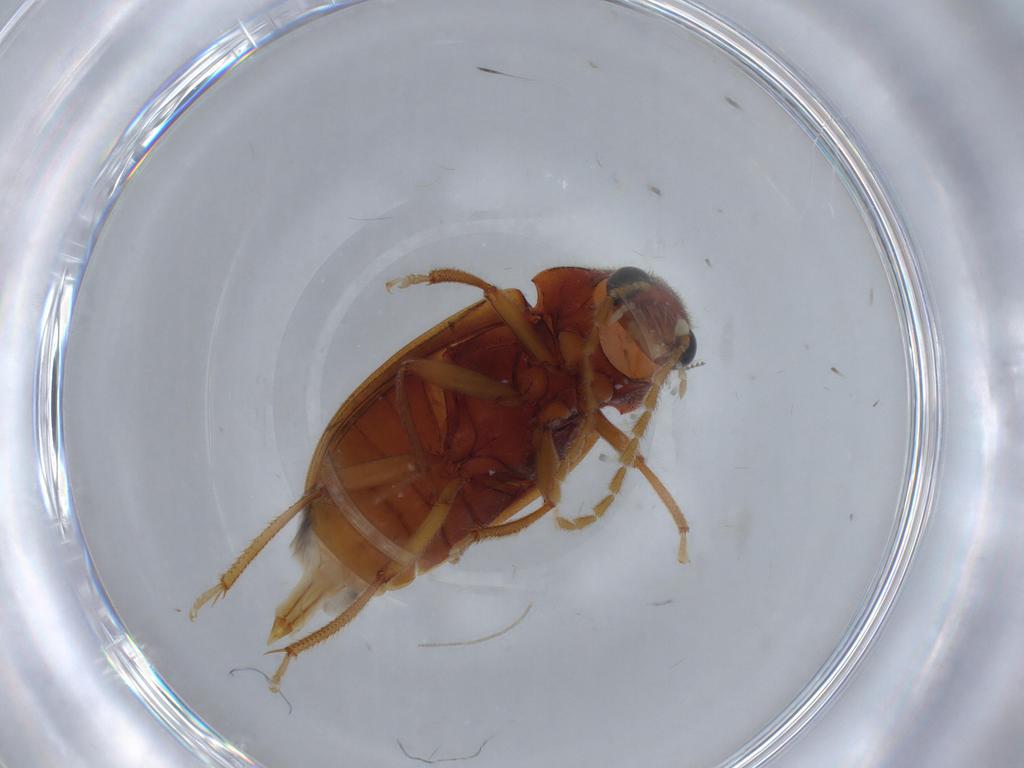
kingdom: Animalia
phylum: Arthropoda
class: Insecta
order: Coleoptera
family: Ptilodactylidae
